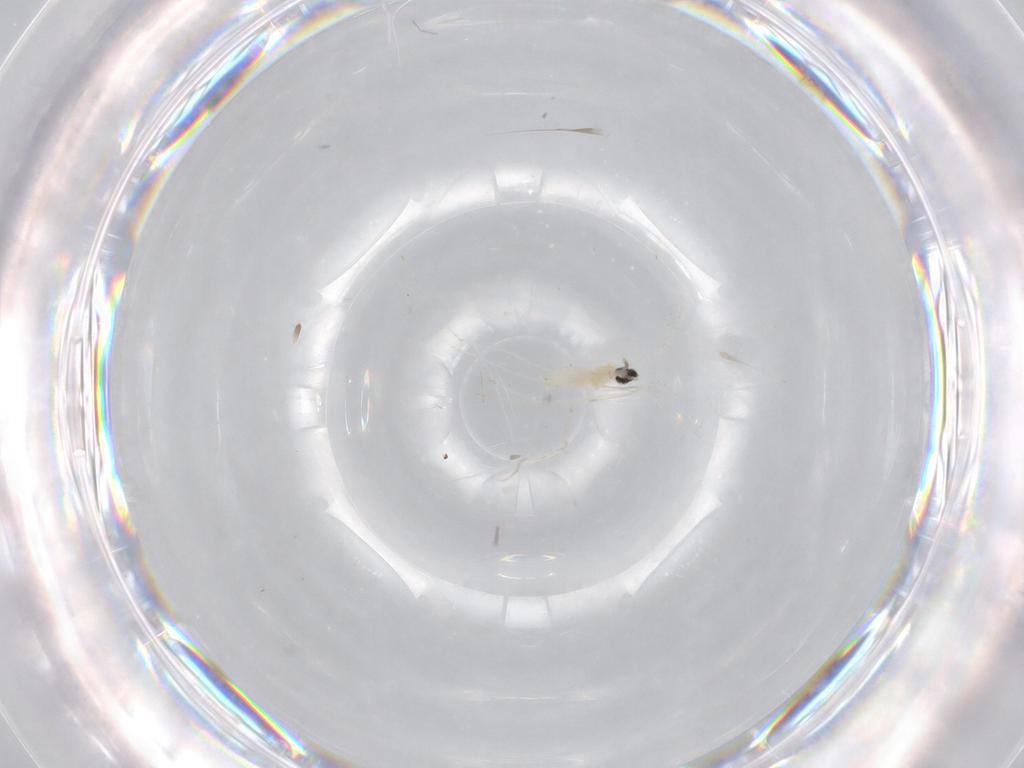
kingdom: Animalia
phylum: Arthropoda
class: Insecta
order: Diptera
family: Cecidomyiidae
